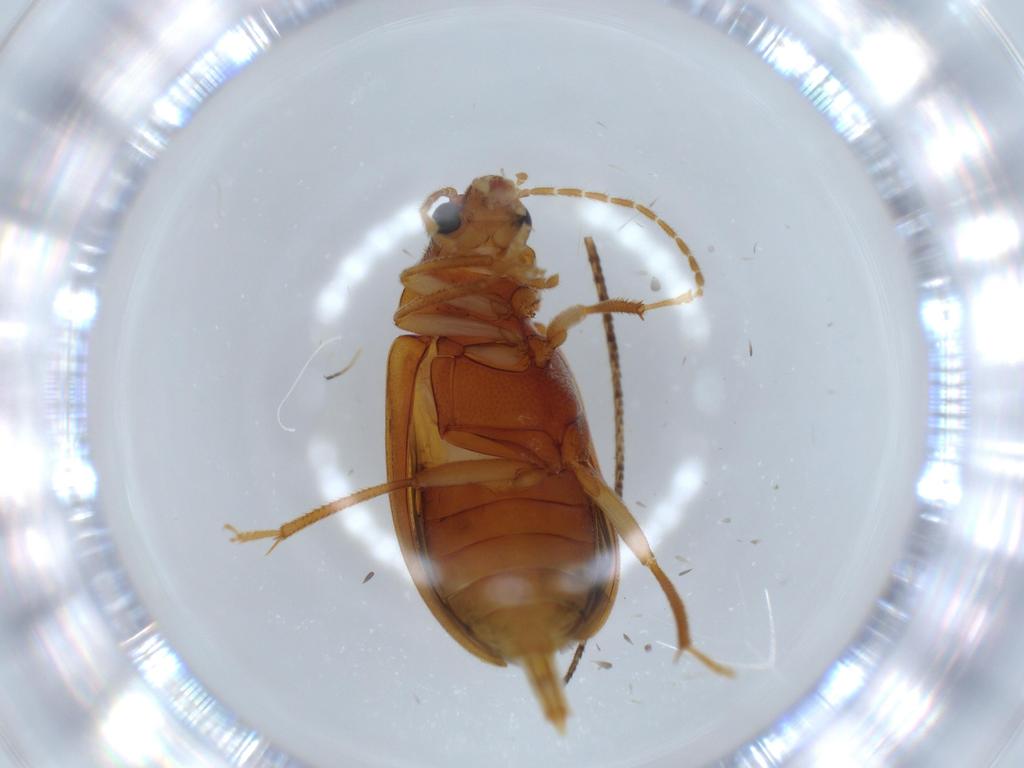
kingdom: Animalia
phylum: Arthropoda
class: Insecta
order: Coleoptera
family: Ptilodactylidae
